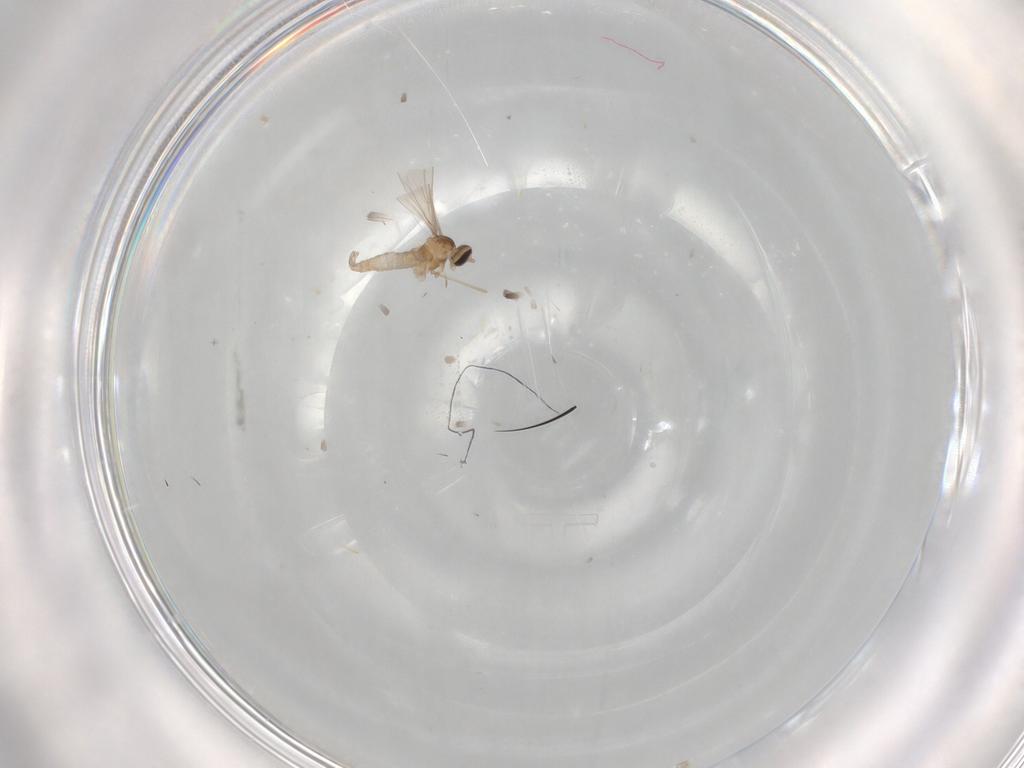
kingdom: Animalia
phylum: Arthropoda
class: Insecta
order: Diptera
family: Cecidomyiidae
